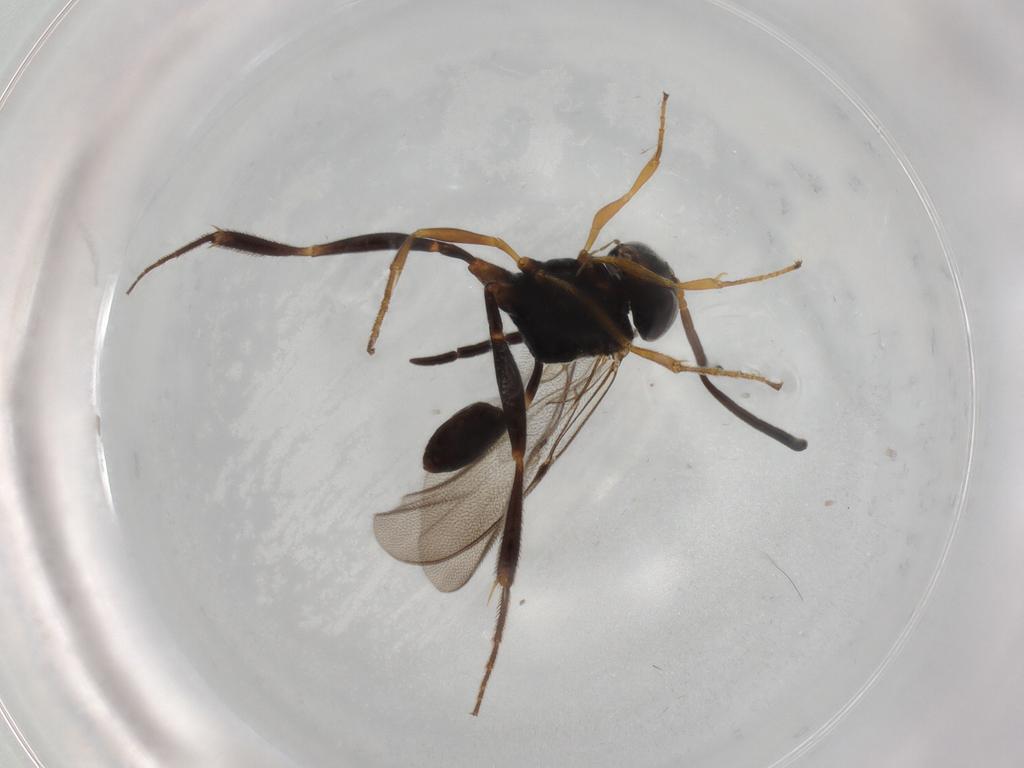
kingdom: Animalia
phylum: Arthropoda
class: Insecta
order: Hymenoptera
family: Evaniidae
